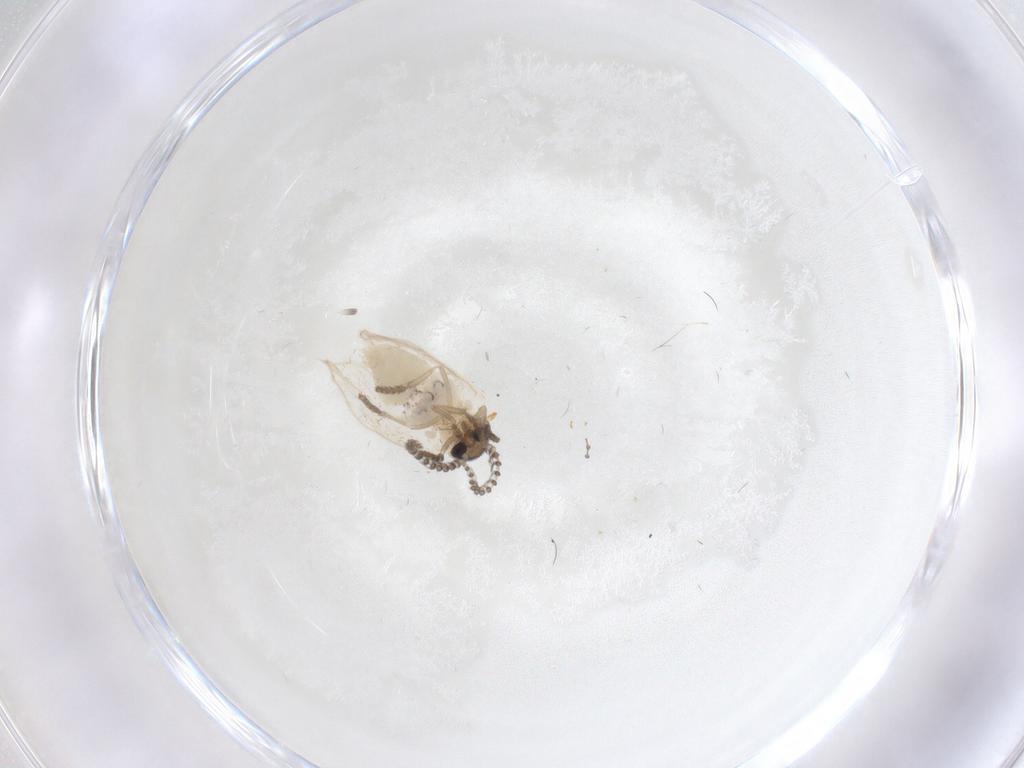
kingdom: Animalia
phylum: Arthropoda
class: Insecta
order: Diptera
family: Psychodidae
